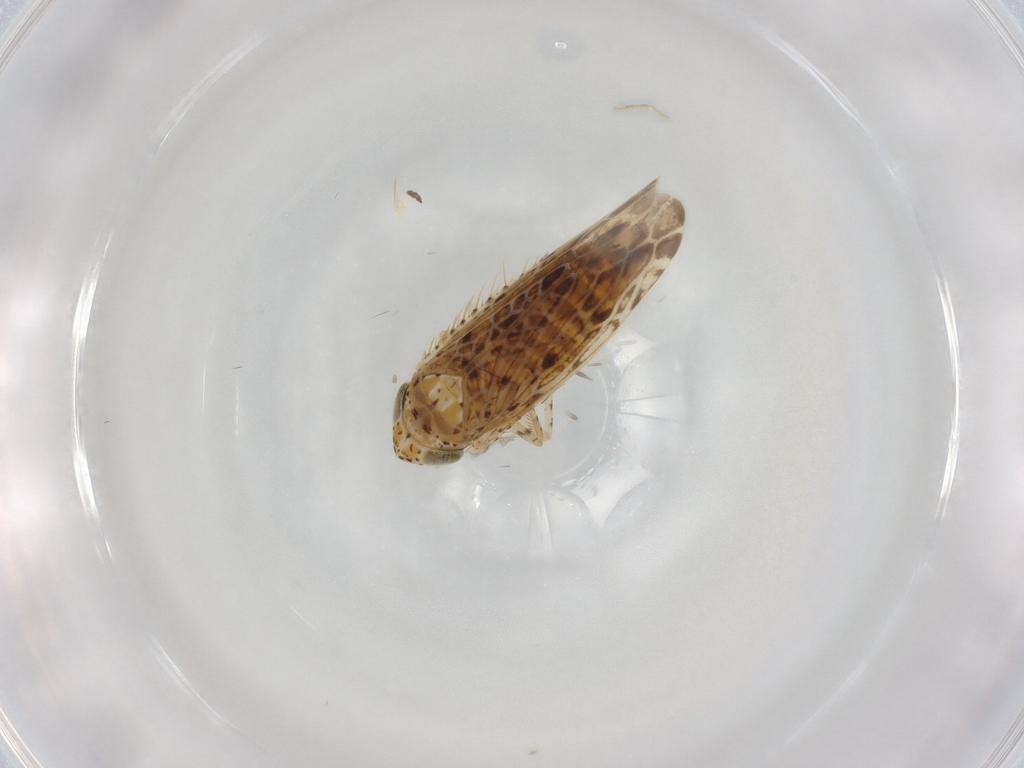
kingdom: Animalia
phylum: Arthropoda
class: Insecta
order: Hemiptera
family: Cicadellidae
